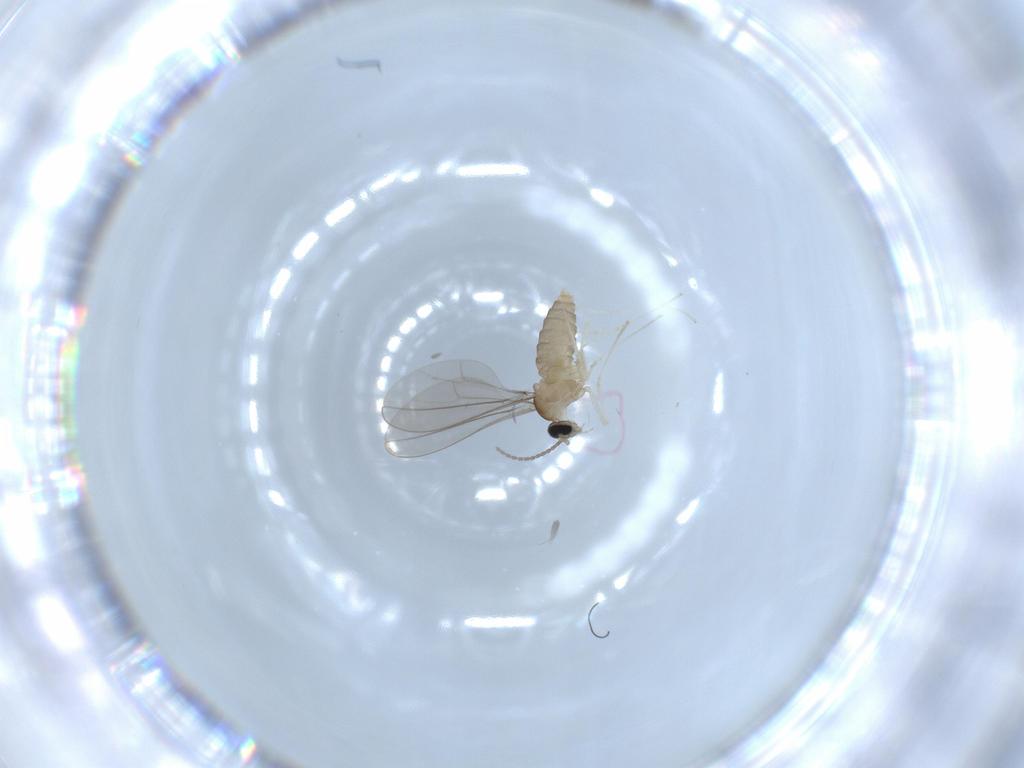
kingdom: Animalia
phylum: Arthropoda
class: Insecta
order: Diptera
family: Cecidomyiidae
